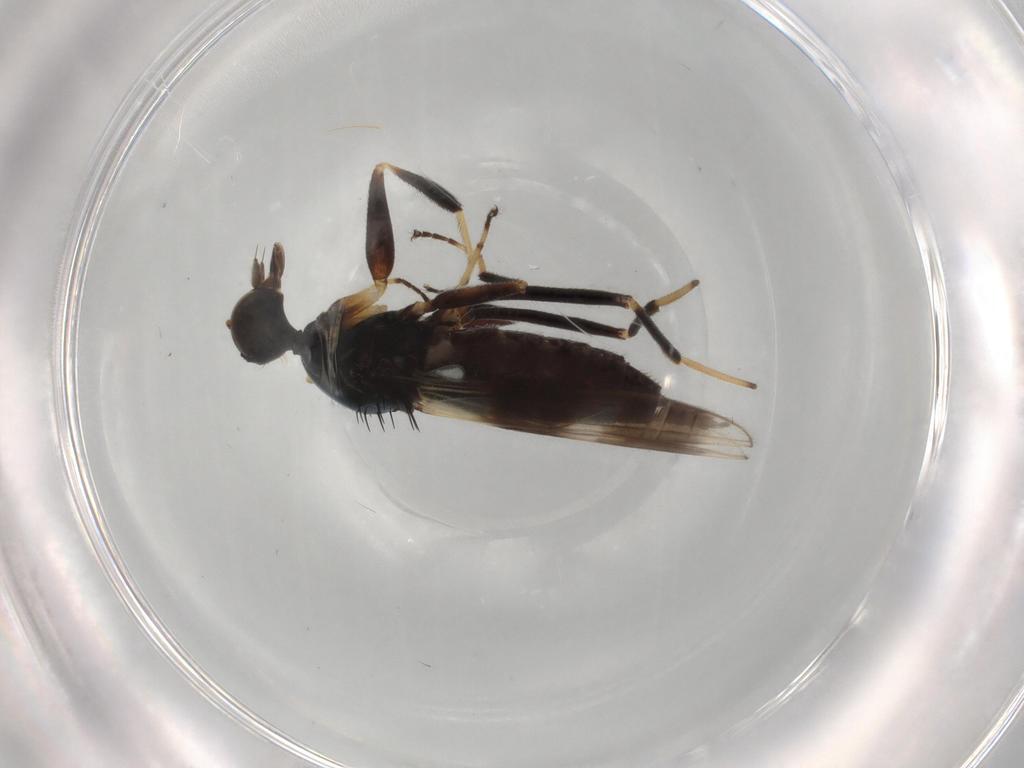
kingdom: Animalia
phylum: Arthropoda
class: Insecta
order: Diptera
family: Hybotidae
